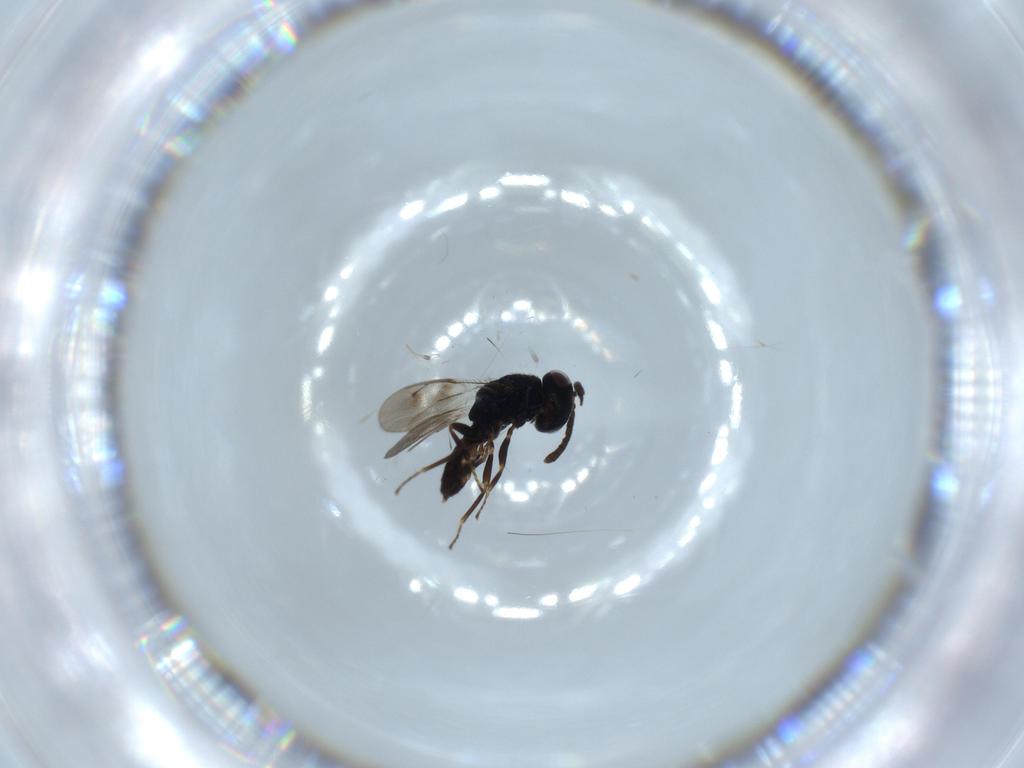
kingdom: Animalia
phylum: Arthropoda
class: Insecta
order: Hymenoptera
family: Pteromalidae
